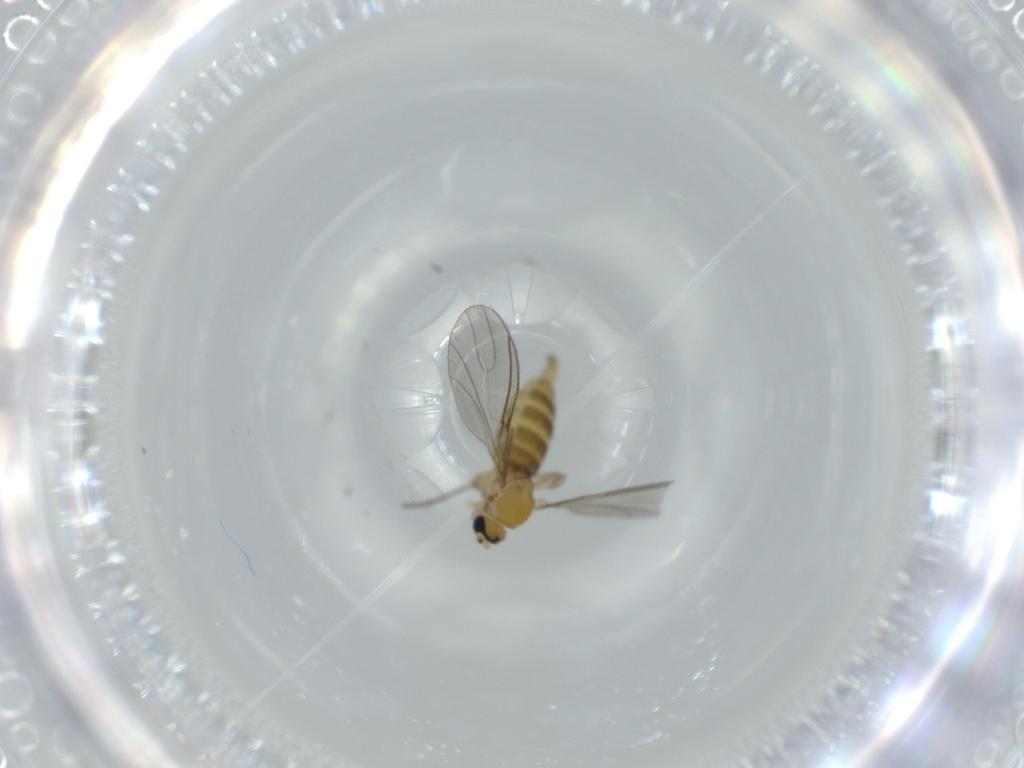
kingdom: Animalia
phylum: Arthropoda
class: Insecta
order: Diptera
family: Sciaridae
